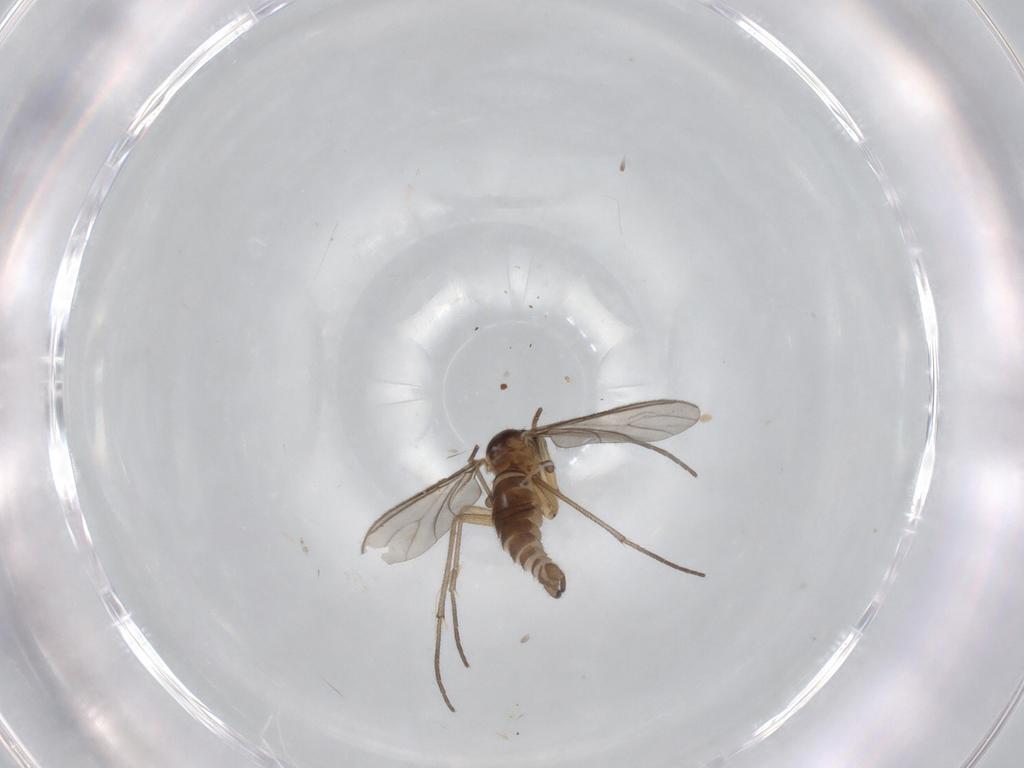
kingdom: Animalia
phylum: Arthropoda
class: Insecta
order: Diptera
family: Sciaridae
